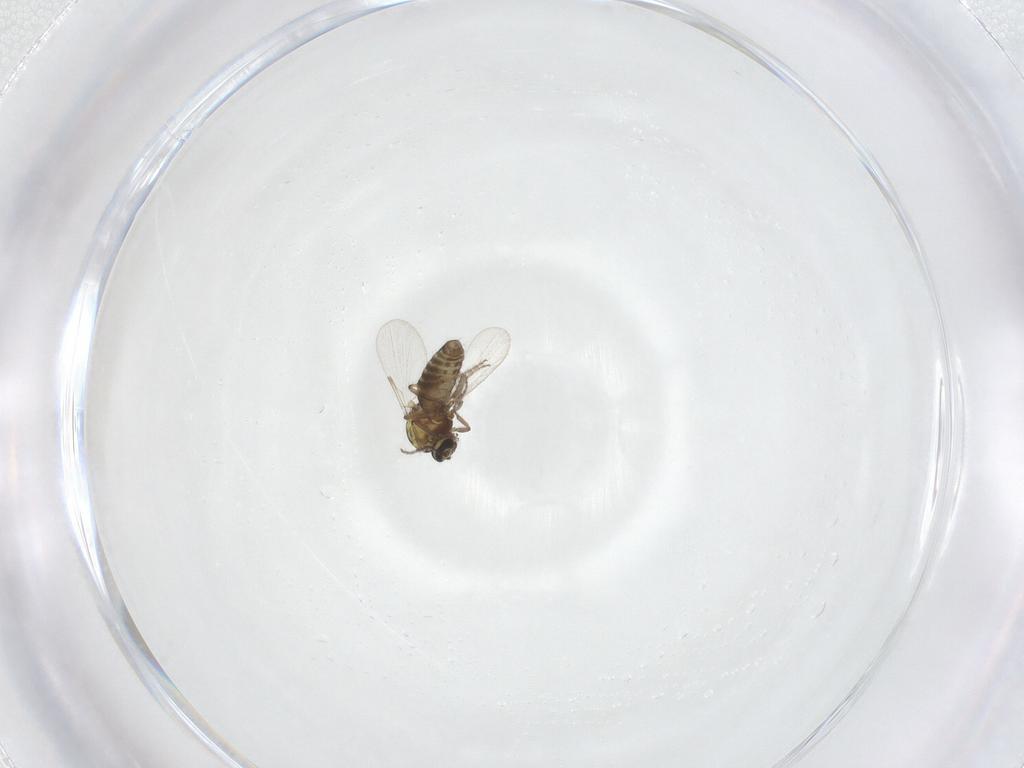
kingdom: Animalia
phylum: Arthropoda
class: Insecta
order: Diptera
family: Ceratopogonidae
